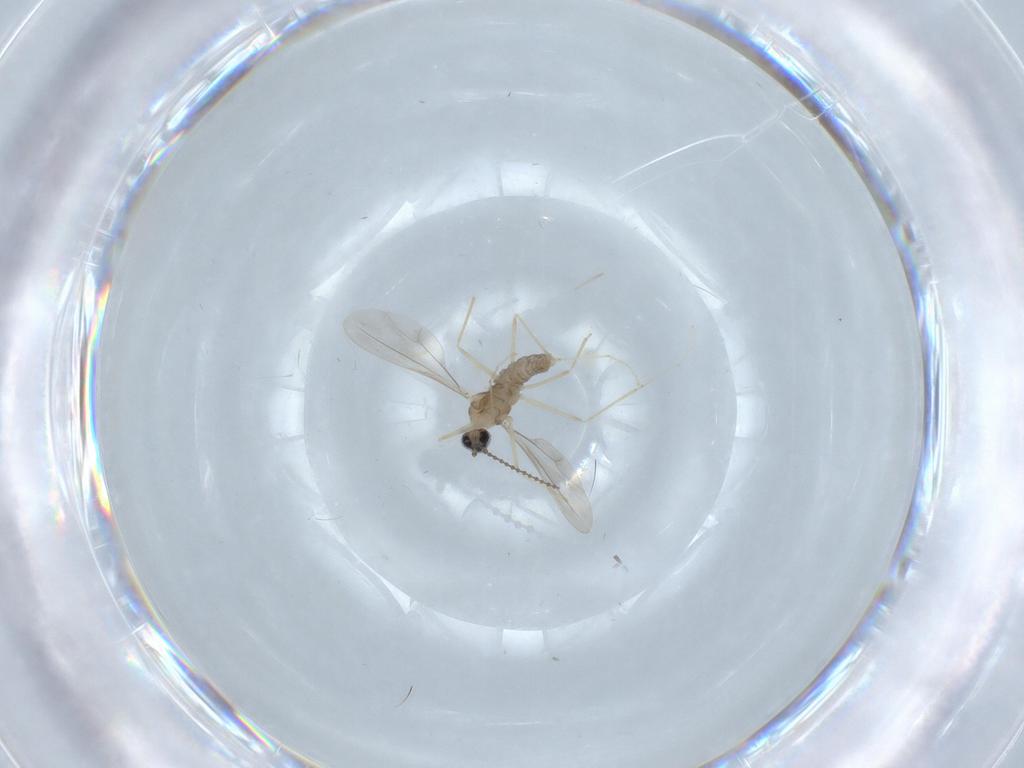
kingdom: Animalia
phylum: Arthropoda
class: Insecta
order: Diptera
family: Cecidomyiidae
